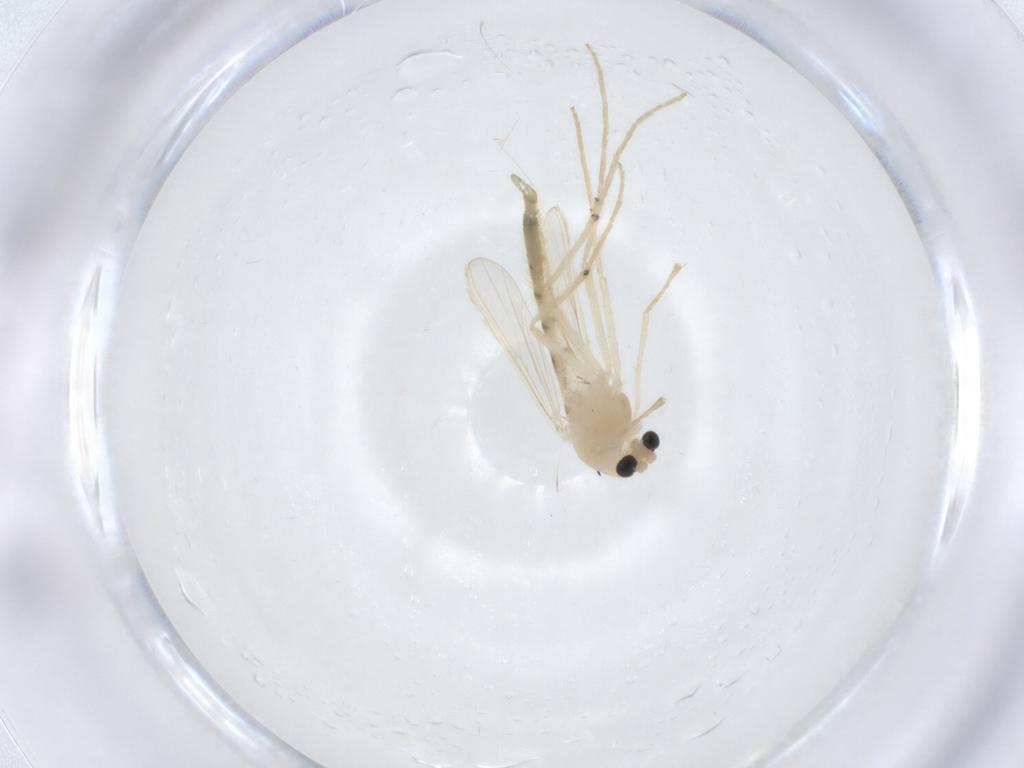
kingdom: Animalia
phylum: Arthropoda
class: Insecta
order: Diptera
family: Chironomidae
